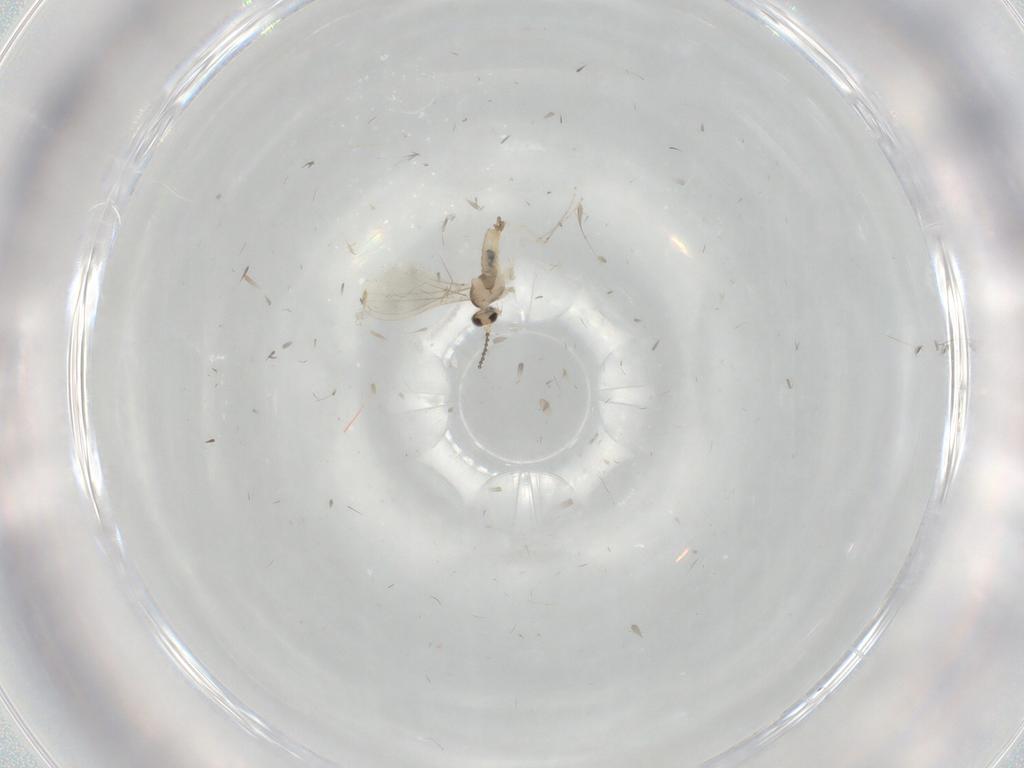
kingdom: Animalia
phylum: Arthropoda
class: Insecta
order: Diptera
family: Cecidomyiidae
